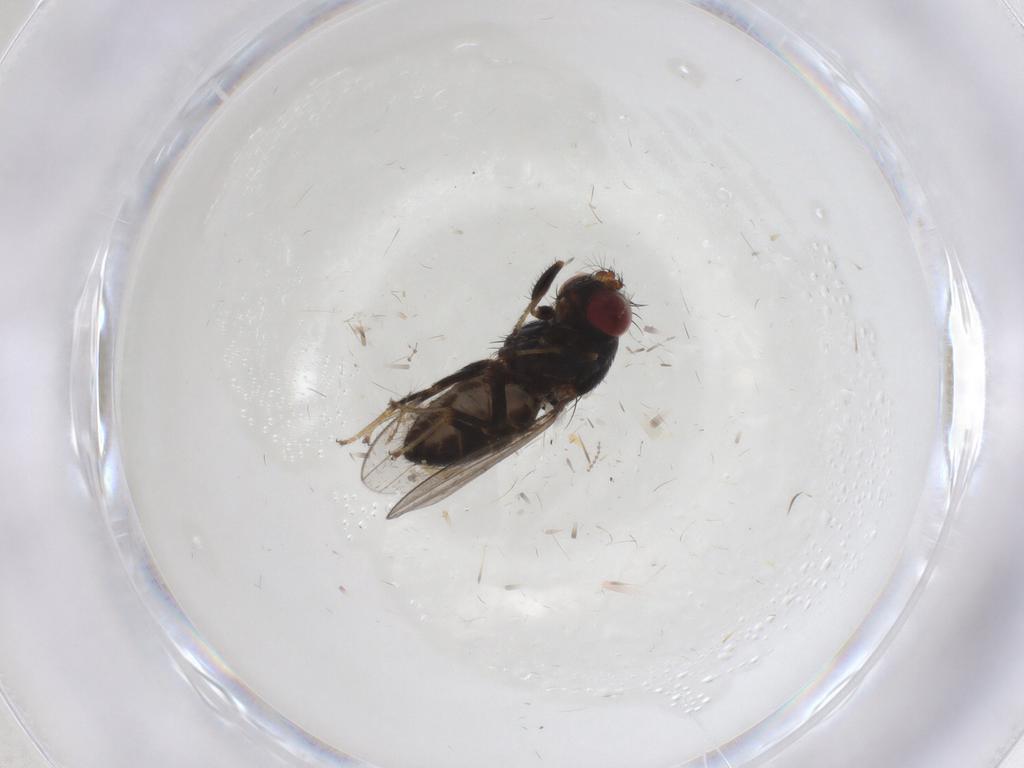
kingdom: Animalia
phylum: Arthropoda
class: Insecta
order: Diptera
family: Ephydridae
